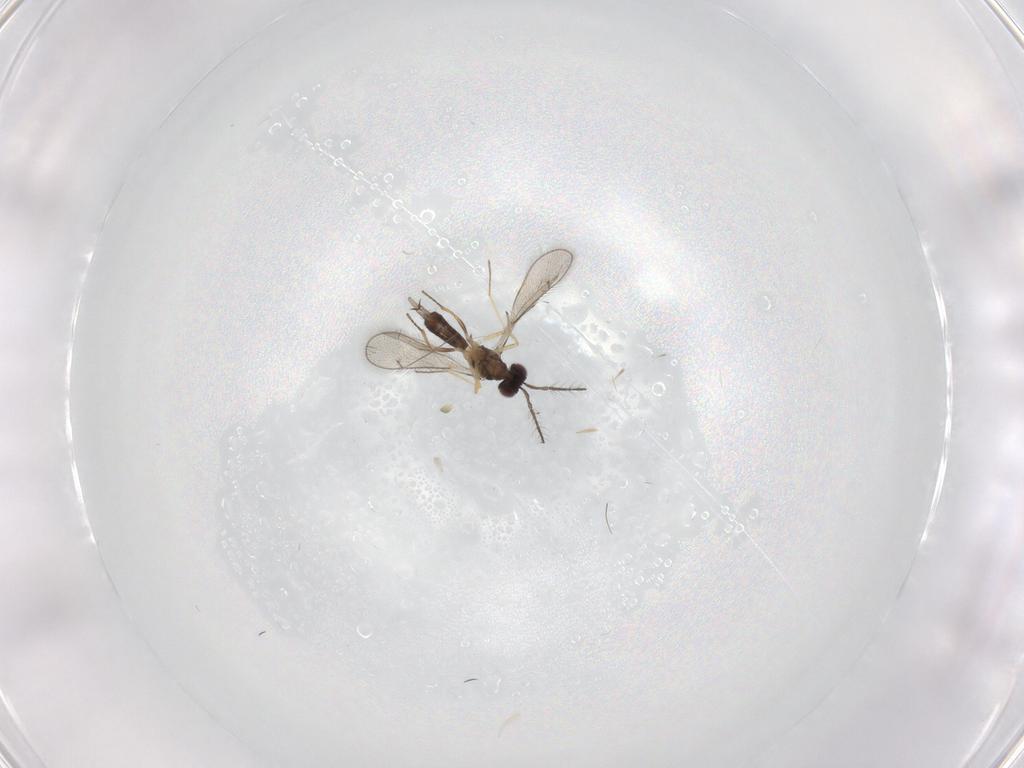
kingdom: Animalia
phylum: Arthropoda
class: Insecta
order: Hymenoptera
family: Eulophidae
